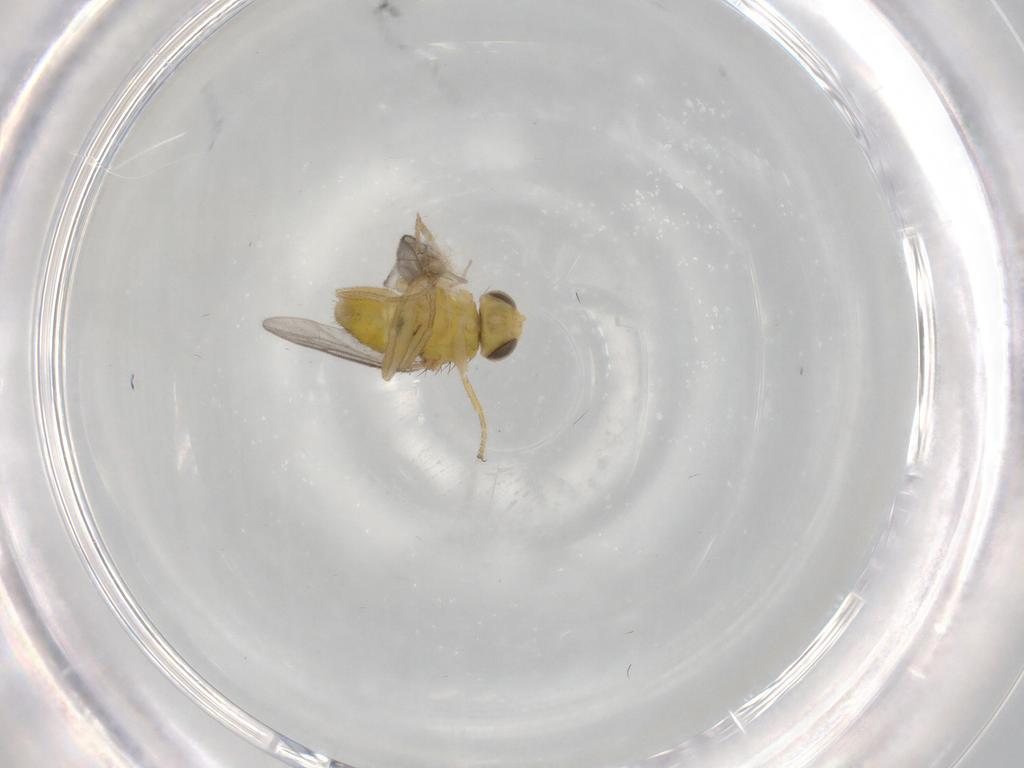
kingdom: Animalia
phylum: Arthropoda
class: Insecta
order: Diptera
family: Chloropidae
